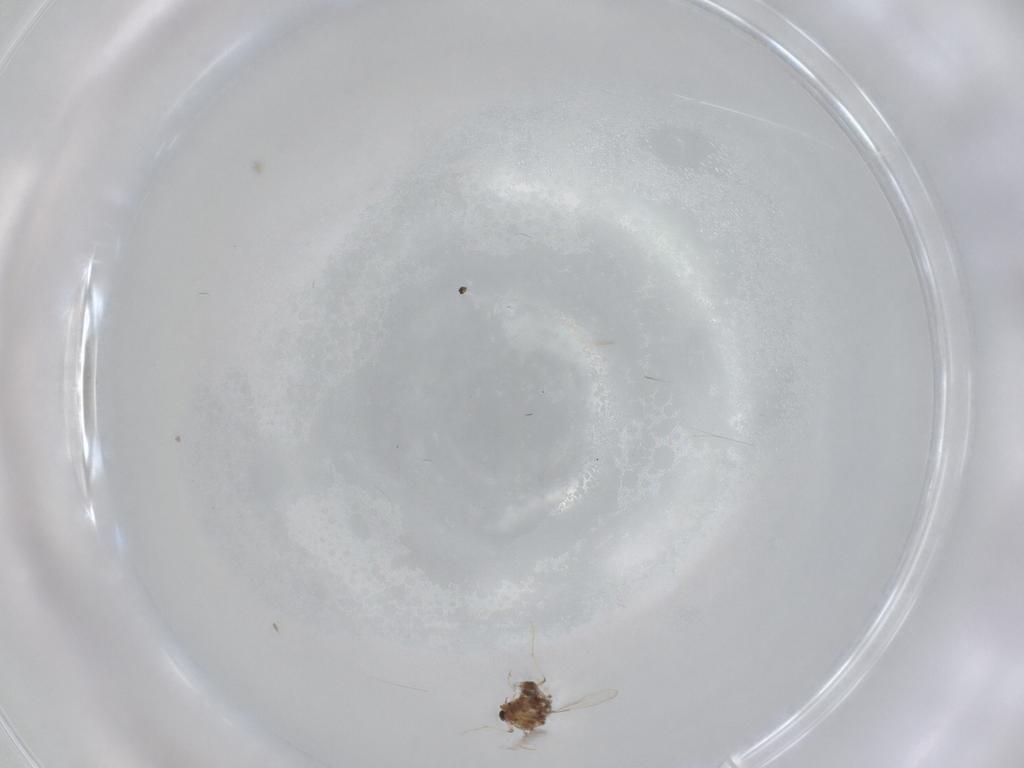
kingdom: Animalia
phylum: Arthropoda
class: Insecta
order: Diptera
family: Chironomidae
